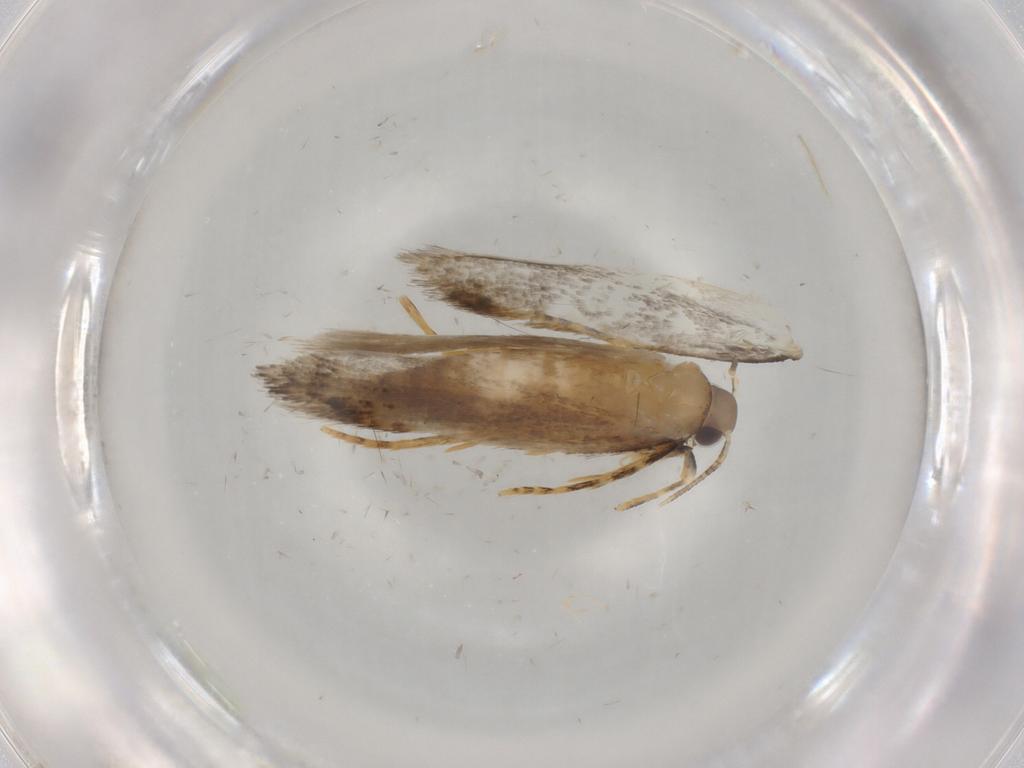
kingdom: Animalia
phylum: Arthropoda
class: Insecta
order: Lepidoptera
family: Autostichidae
